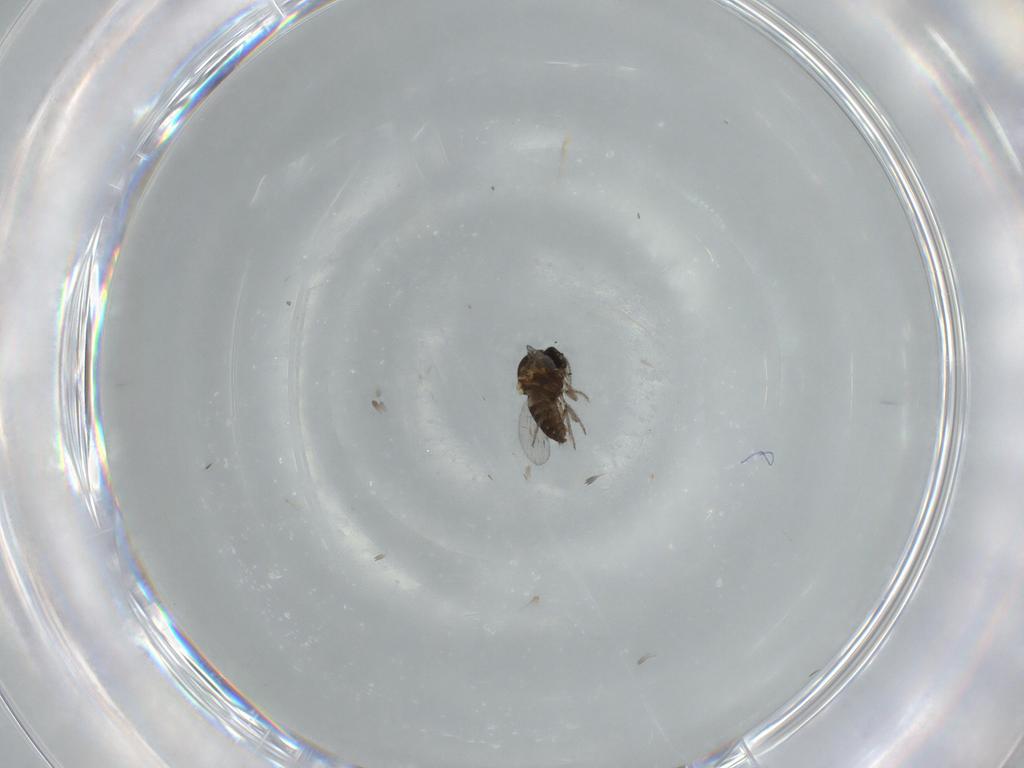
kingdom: Animalia
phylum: Arthropoda
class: Insecta
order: Diptera
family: Ceratopogonidae
